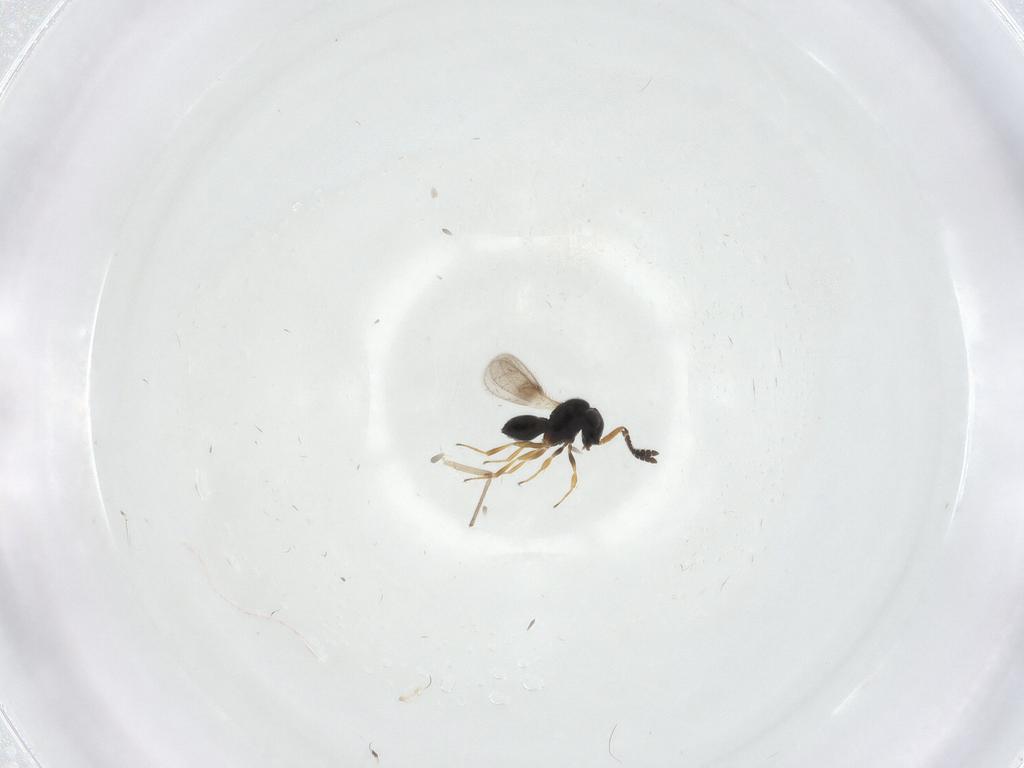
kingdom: Animalia
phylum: Arthropoda
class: Insecta
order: Hymenoptera
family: Scelionidae
